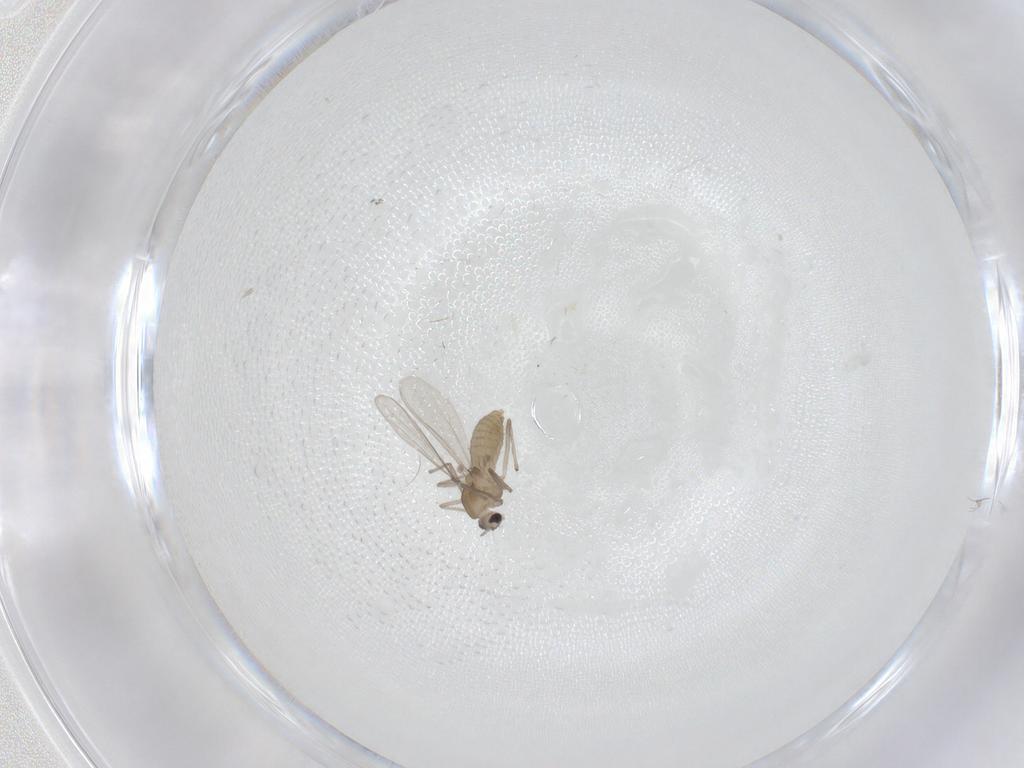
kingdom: Animalia
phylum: Arthropoda
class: Insecta
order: Diptera
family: Chironomidae
